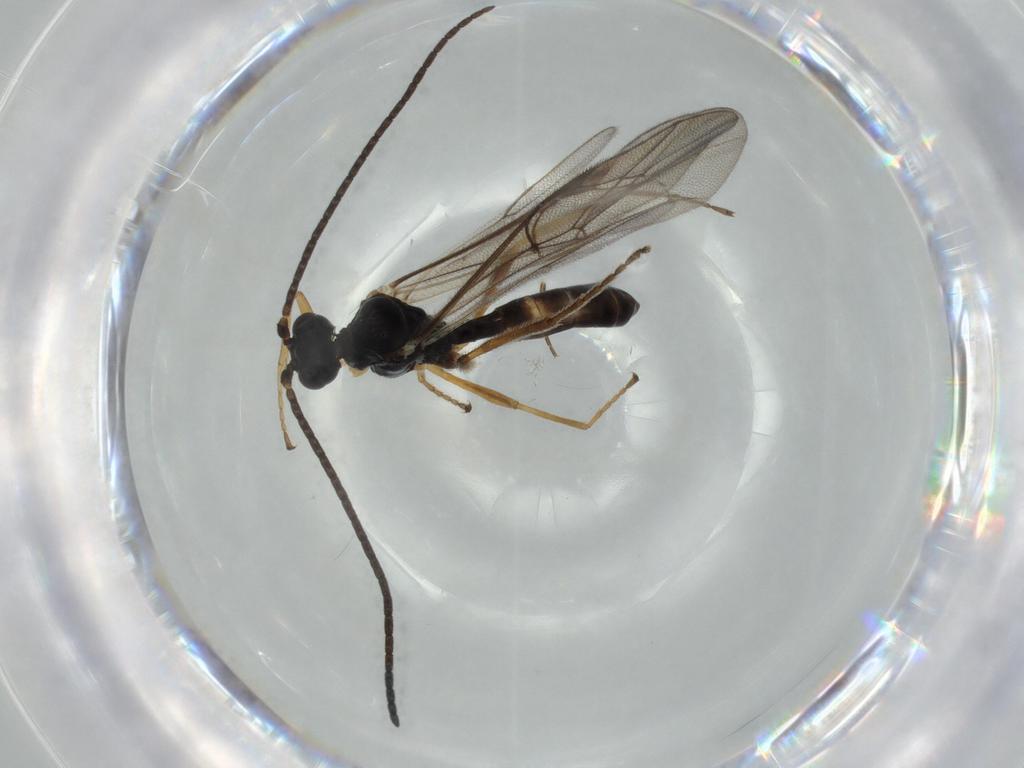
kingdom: Animalia
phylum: Arthropoda
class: Insecta
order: Hymenoptera
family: Ichneumonidae
